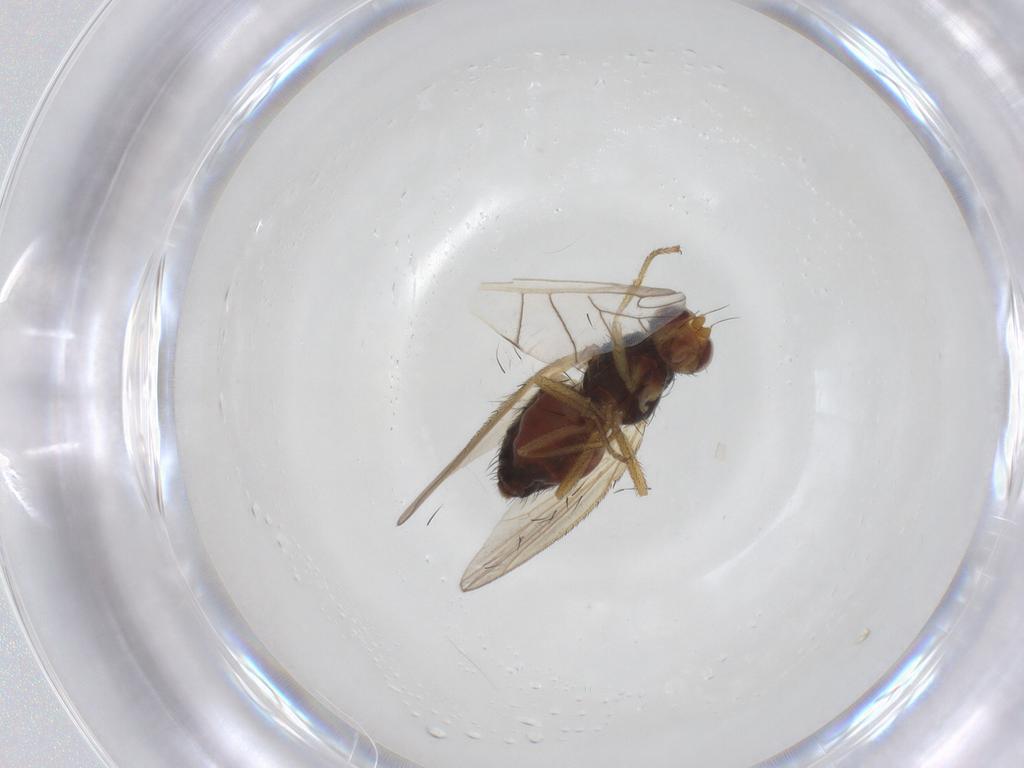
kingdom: Animalia
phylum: Arthropoda
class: Insecta
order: Diptera
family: Heleomyzidae
